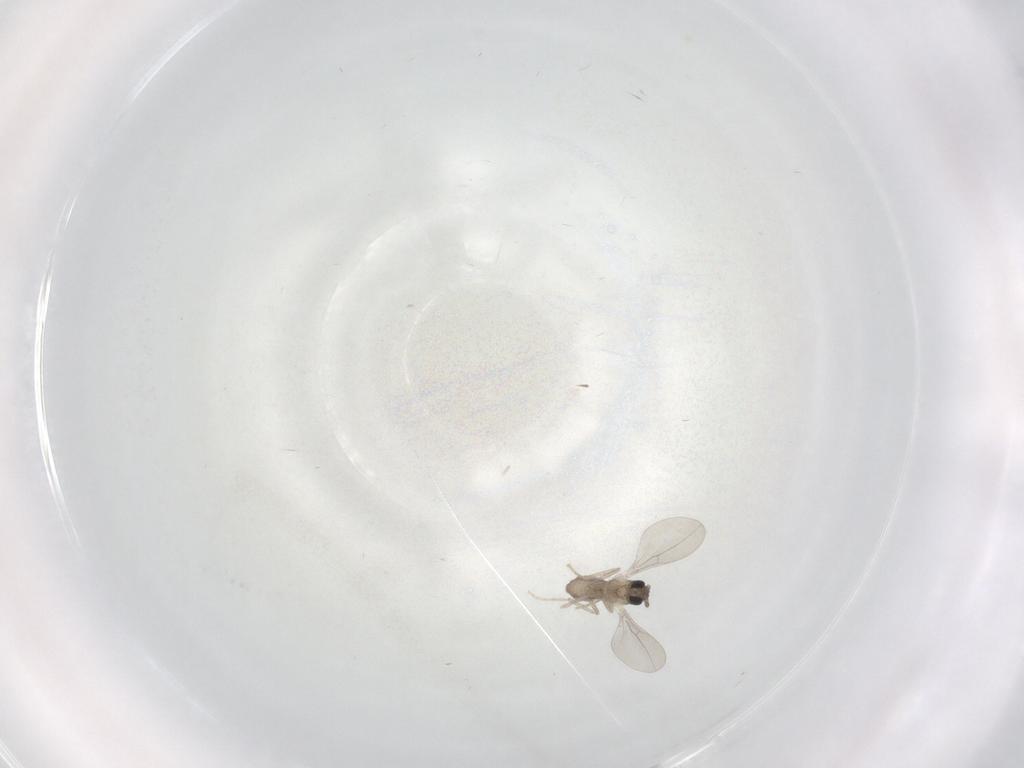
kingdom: Animalia
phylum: Arthropoda
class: Insecta
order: Diptera
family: Cecidomyiidae
